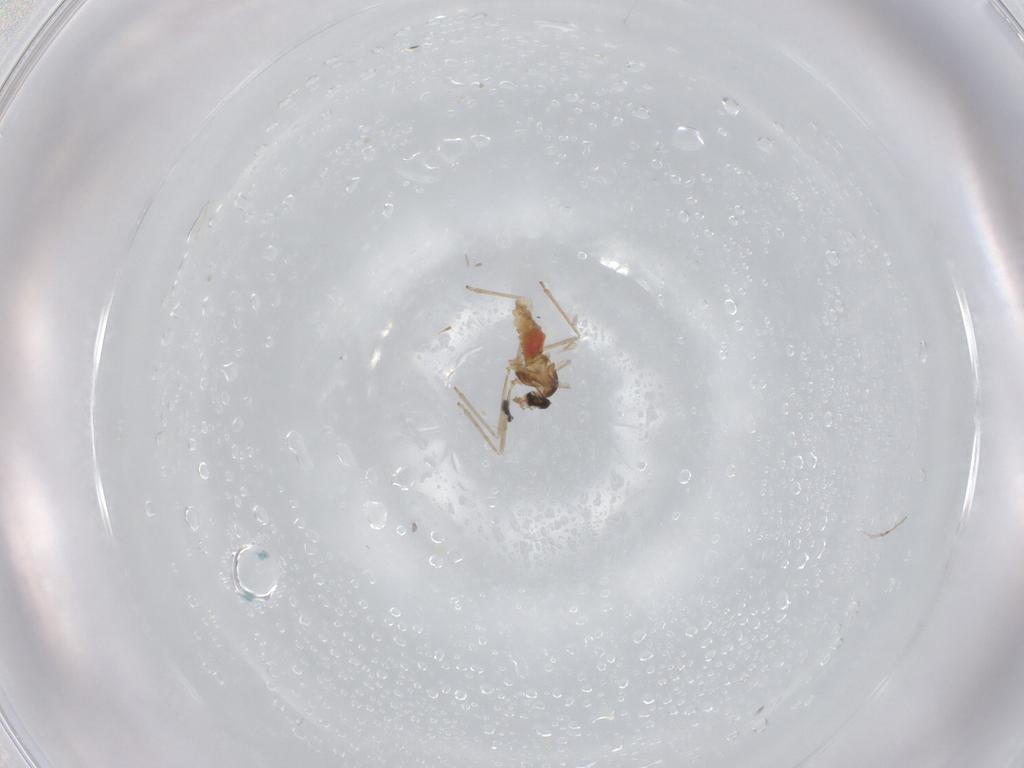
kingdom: Animalia
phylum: Arthropoda
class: Insecta
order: Diptera
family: Cecidomyiidae
